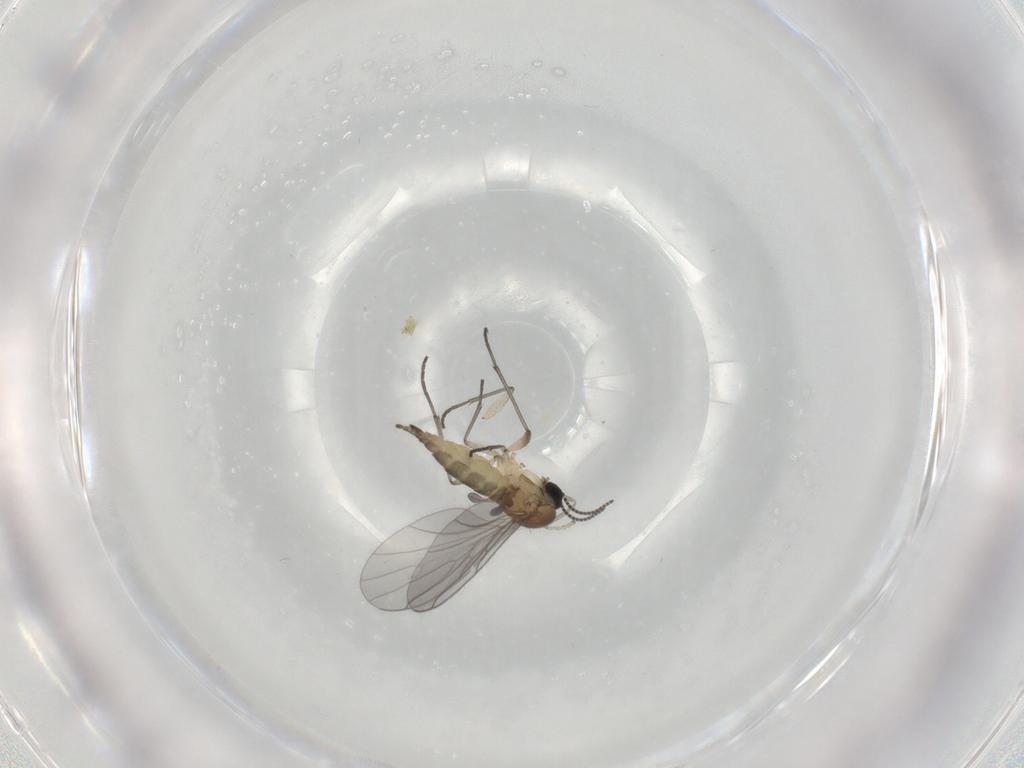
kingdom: Animalia
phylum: Arthropoda
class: Insecta
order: Diptera
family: Sciaridae
